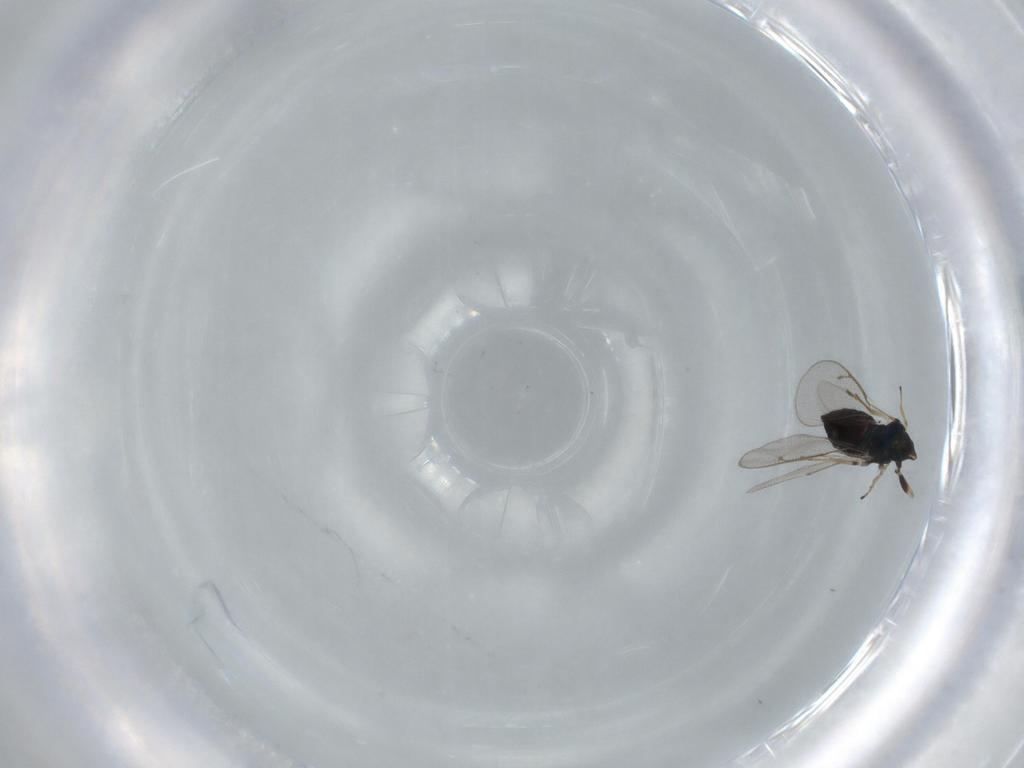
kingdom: Animalia
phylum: Arthropoda
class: Insecta
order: Hymenoptera
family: Eulophidae
